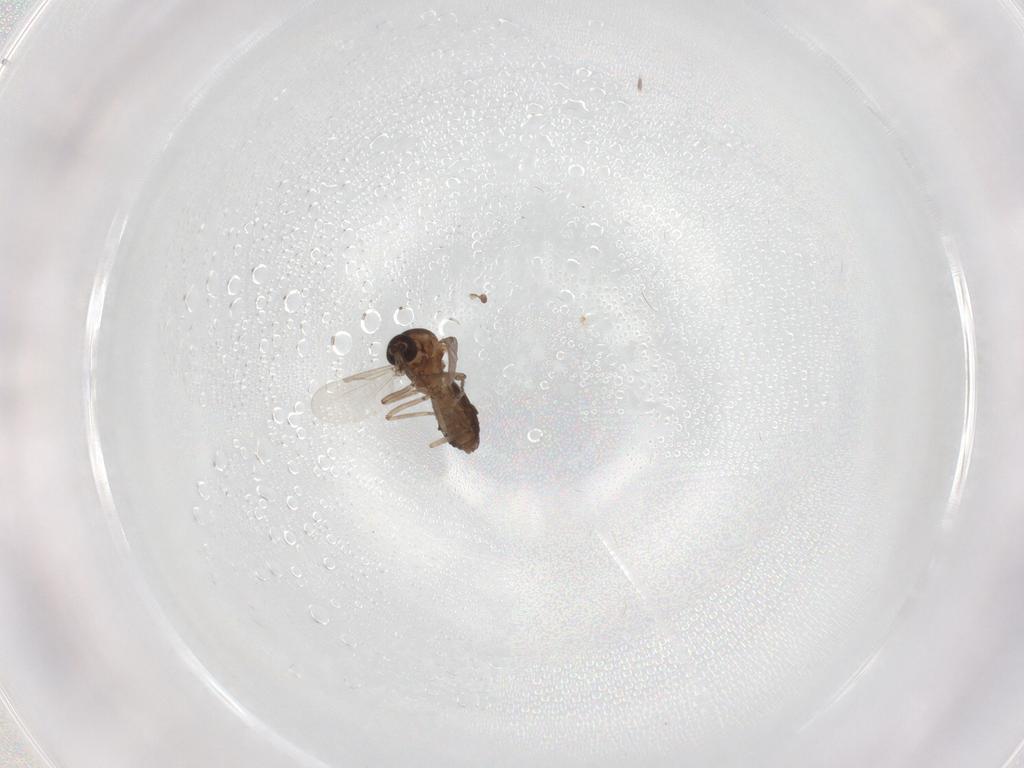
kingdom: Animalia
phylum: Arthropoda
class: Insecta
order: Diptera
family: Ceratopogonidae
